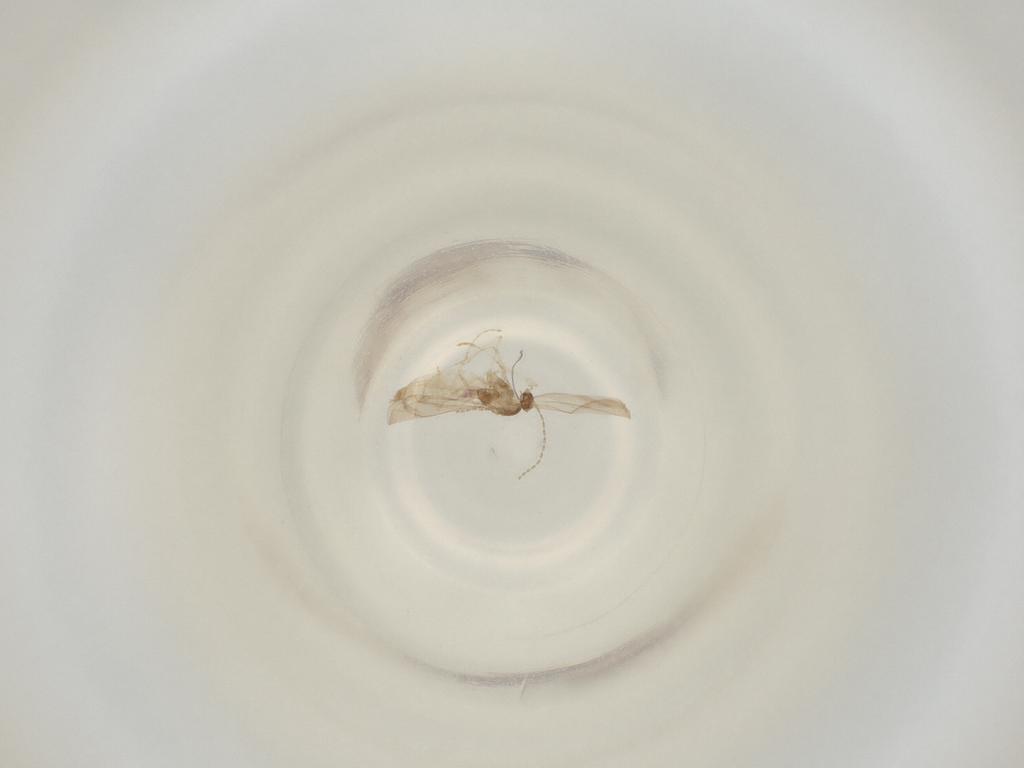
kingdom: Animalia
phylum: Arthropoda
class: Insecta
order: Diptera
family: Cecidomyiidae
